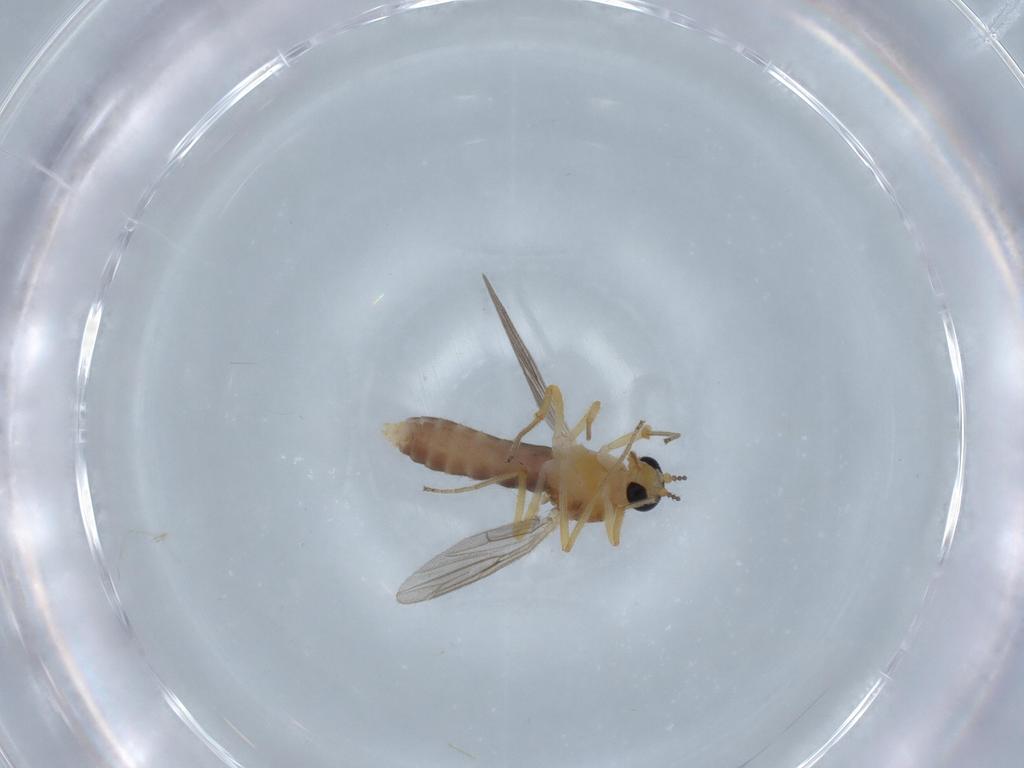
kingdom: Animalia
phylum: Arthropoda
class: Insecta
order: Diptera
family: Ceratopogonidae
